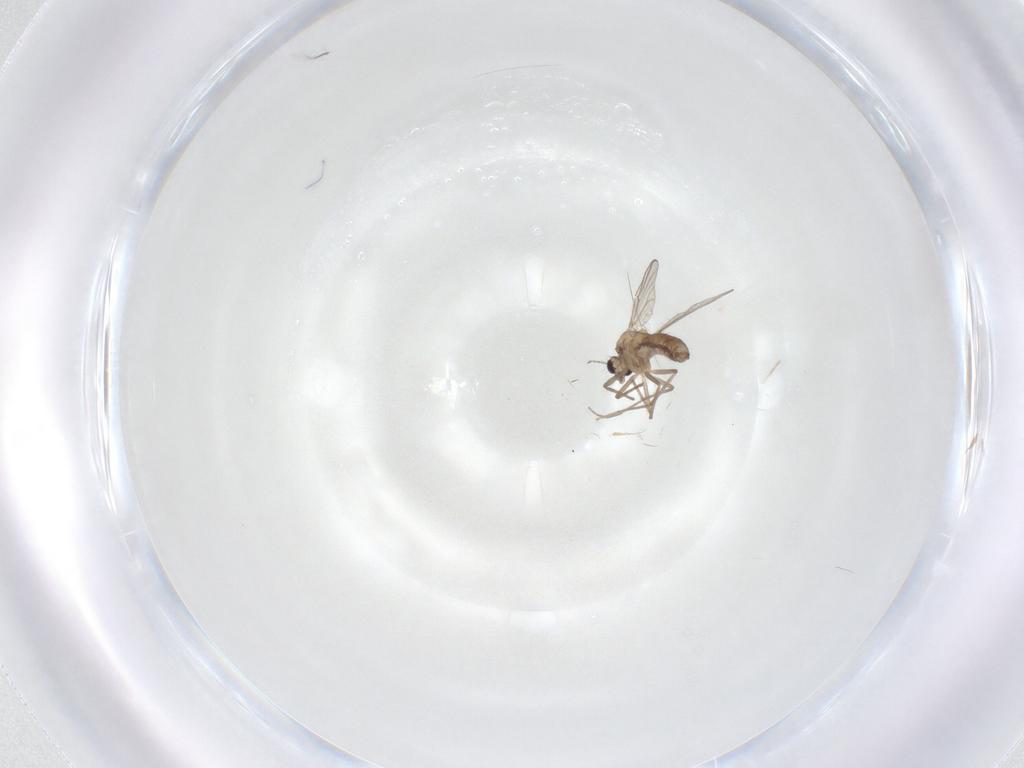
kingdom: Animalia
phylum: Arthropoda
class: Insecta
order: Diptera
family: Chironomidae
